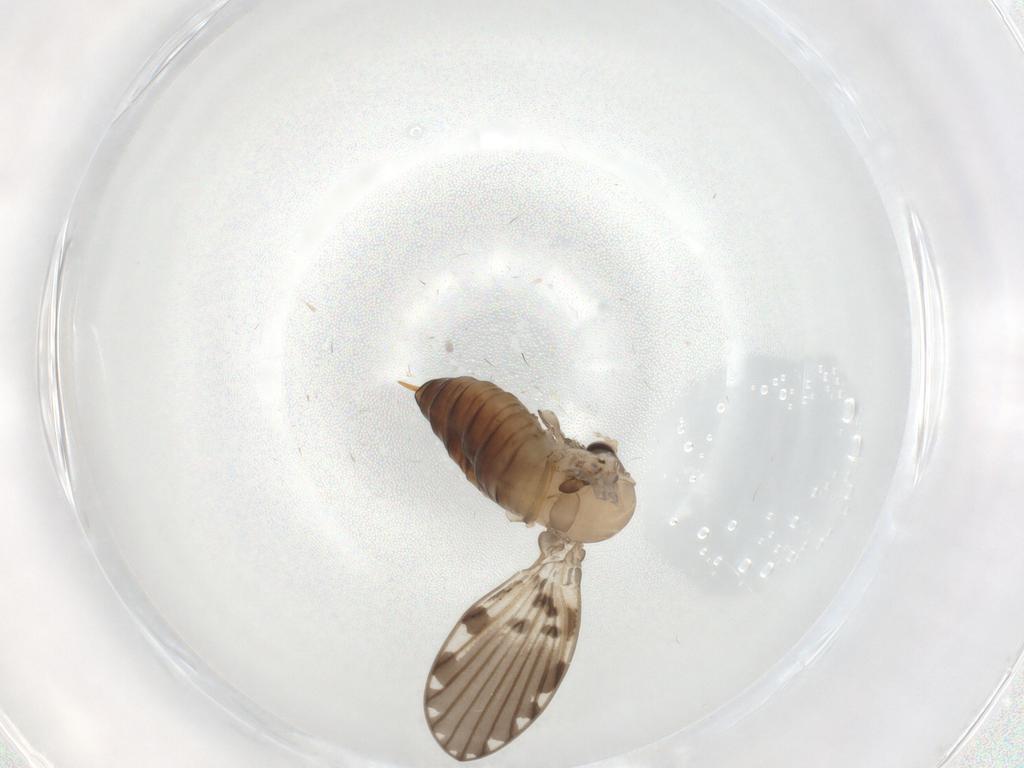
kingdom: Animalia
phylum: Arthropoda
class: Insecta
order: Diptera
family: Psychodidae
